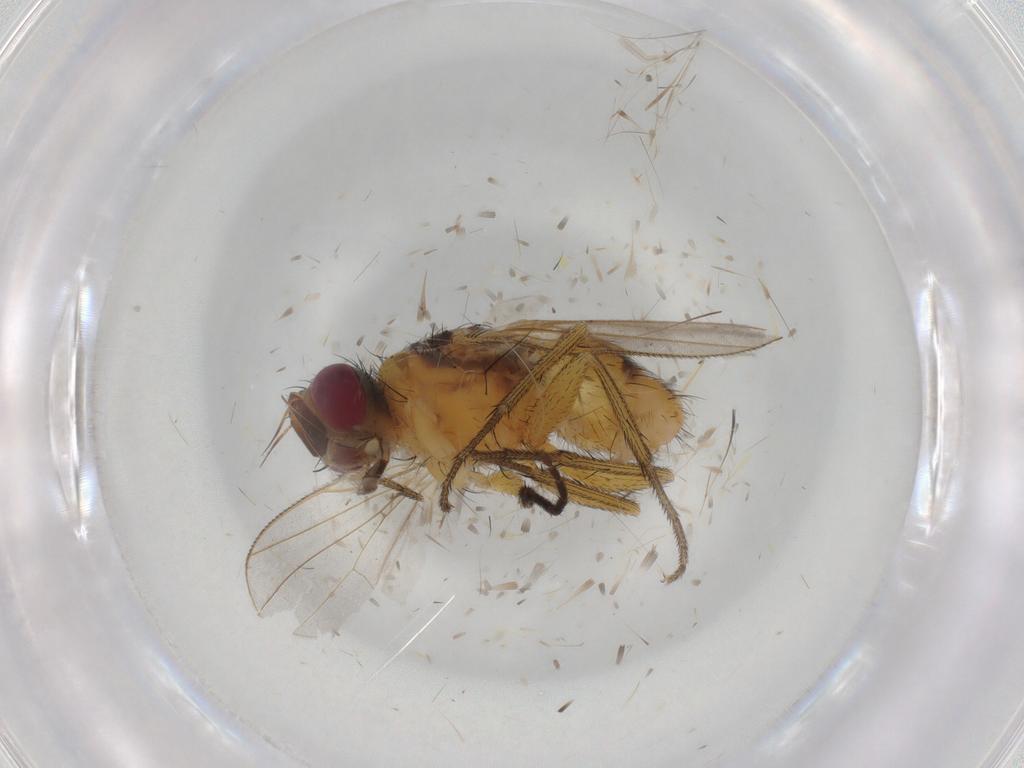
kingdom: Animalia
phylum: Arthropoda
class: Insecta
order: Diptera
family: Muscidae
